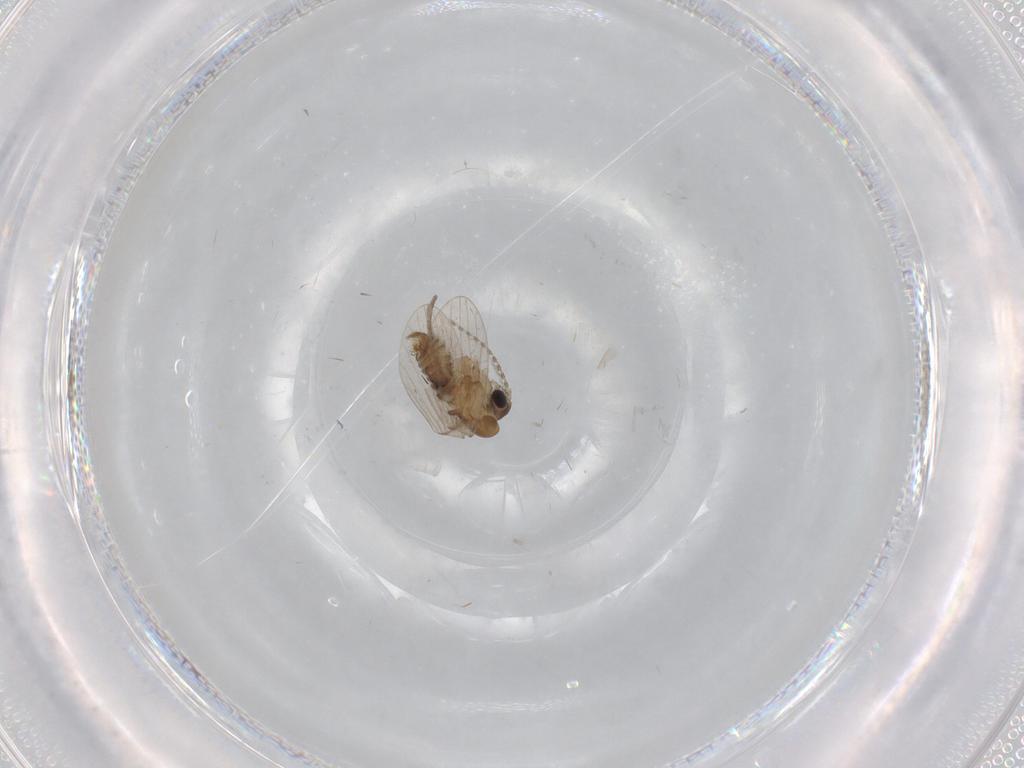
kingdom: Animalia
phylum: Arthropoda
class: Insecta
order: Diptera
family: Psychodidae
